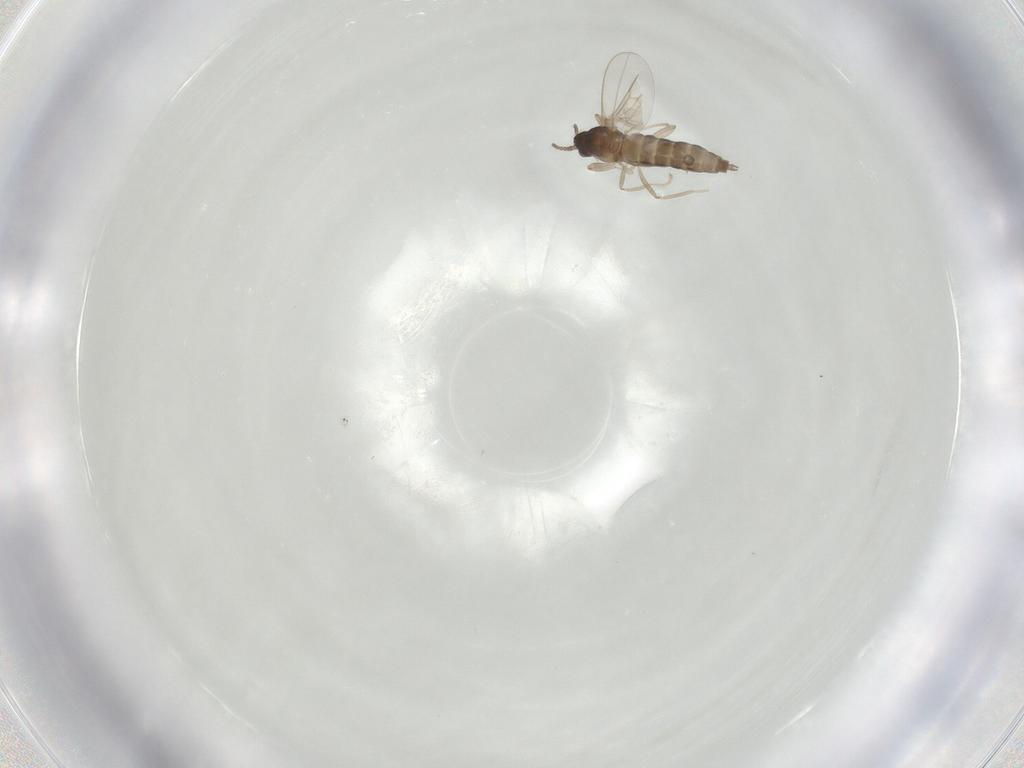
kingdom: Animalia
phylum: Arthropoda
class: Insecta
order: Diptera
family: Cecidomyiidae
